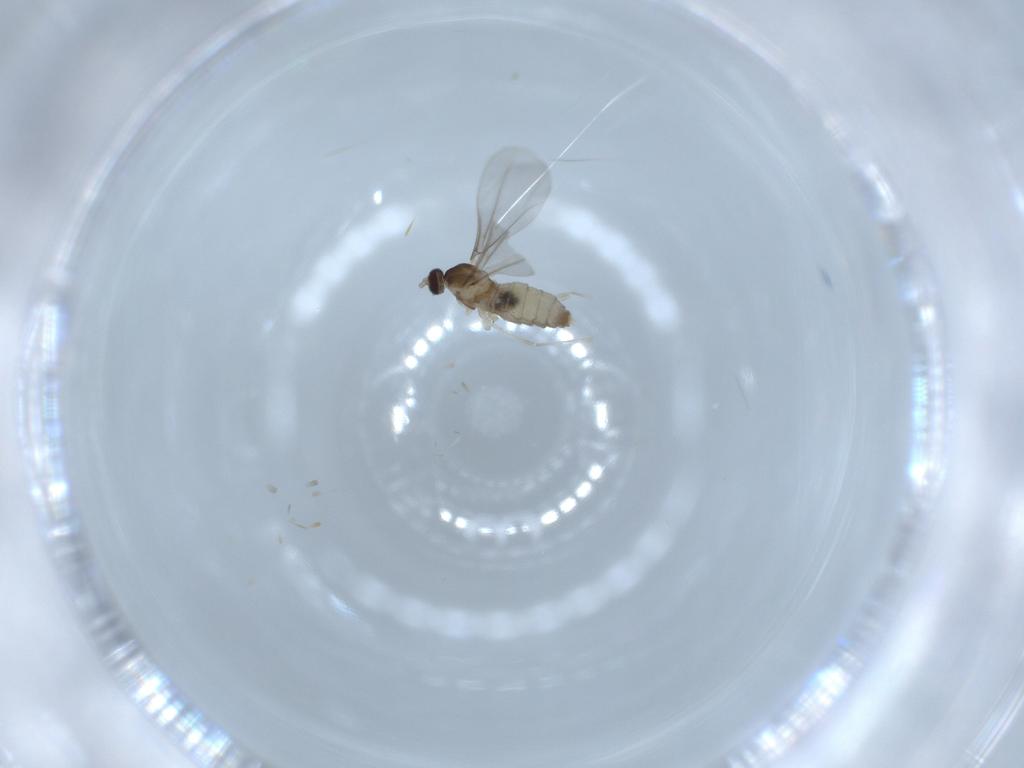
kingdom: Animalia
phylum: Arthropoda
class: Insecta
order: Diptera
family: Cecidomyiidae
